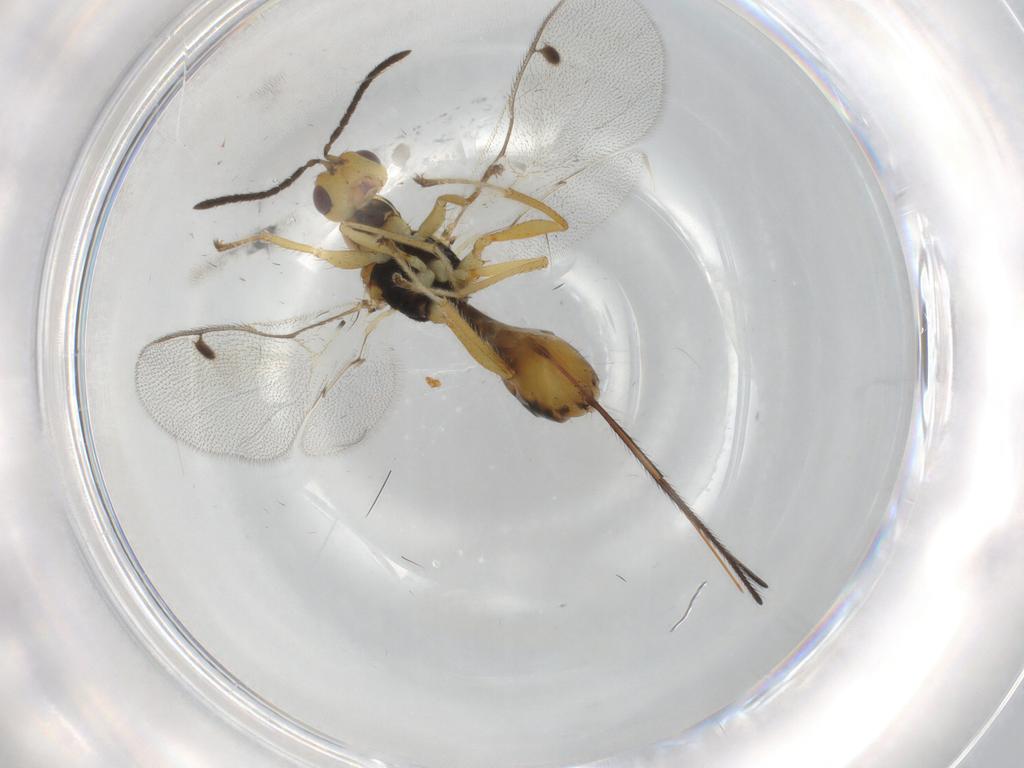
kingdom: Animalia
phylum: Arthropoda
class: Insecta
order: Hymenoptera
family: Megastigmidae
